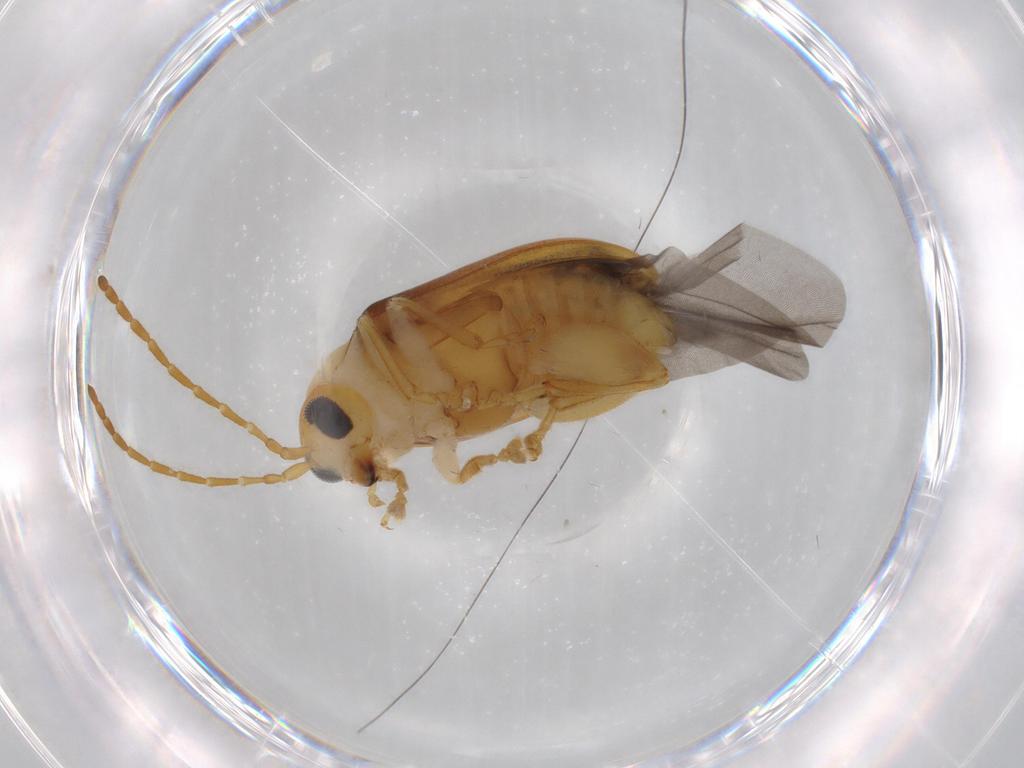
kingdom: Animalia
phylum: Arthropoda
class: Insecta
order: Coleoptera
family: Chrysomelidae
